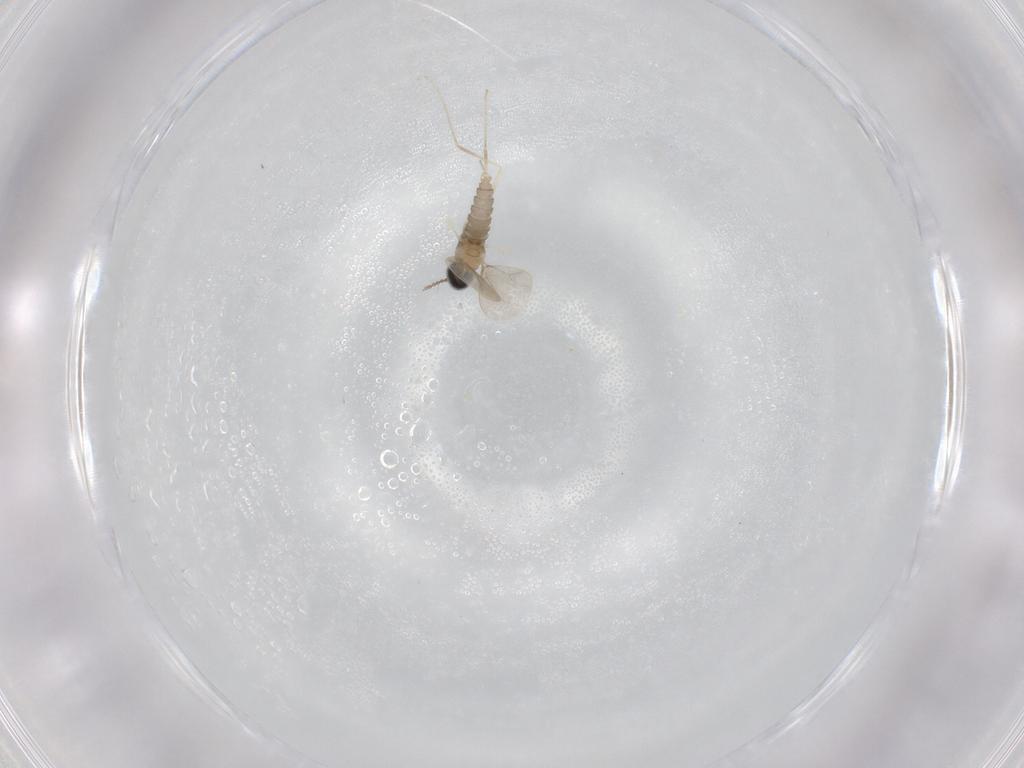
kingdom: Animalia
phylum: Arthropoda
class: Insecta
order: Diptera
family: Cecidomyiidae
